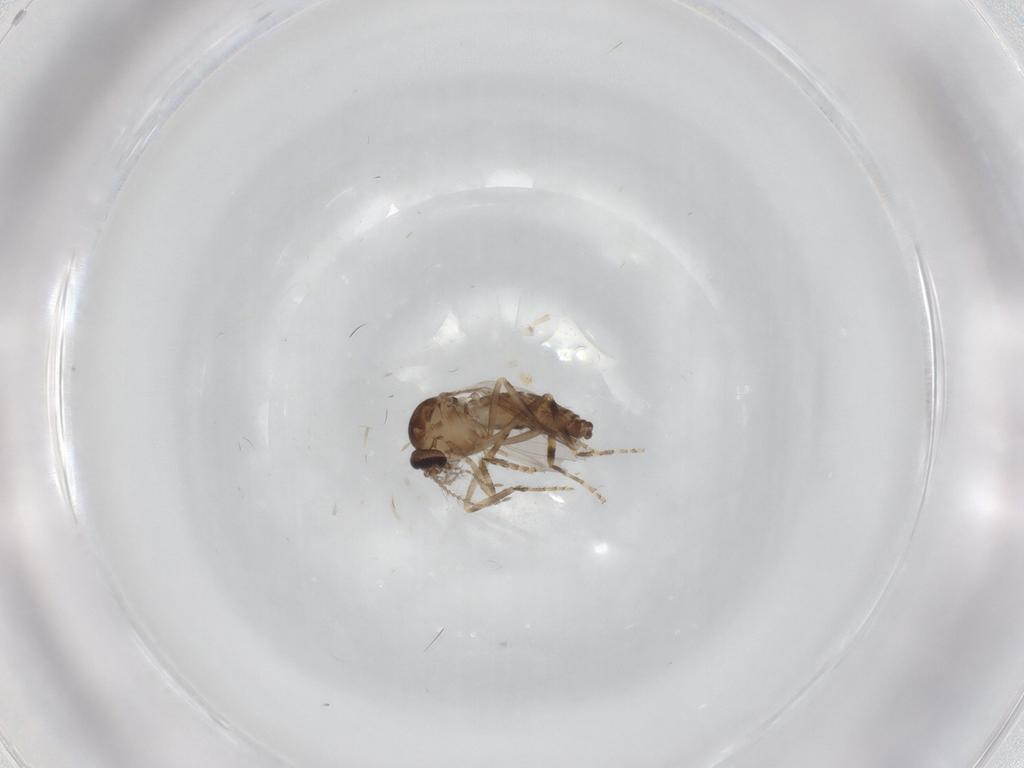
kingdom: Animalia
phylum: Arthropoda
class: Insecta
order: Diptera
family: Ceratopogonidae
